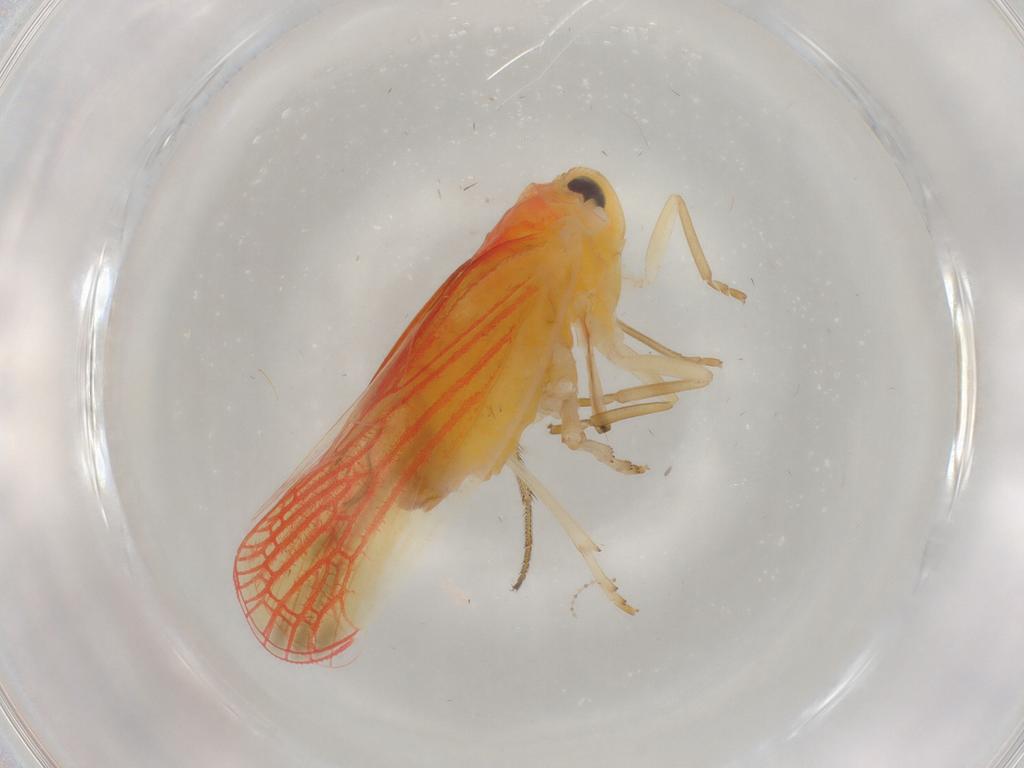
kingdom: Animalia
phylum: Arthropoda
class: Insecta
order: Hemiptera
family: Derbidae
